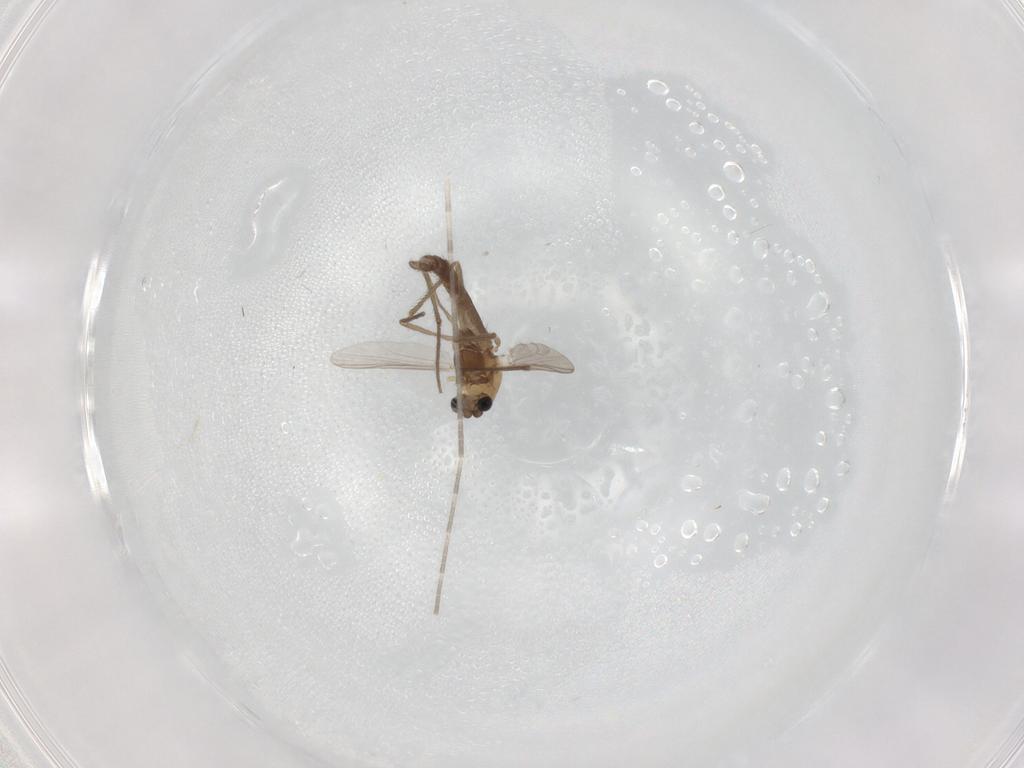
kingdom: Animalia
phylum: Arthropoda
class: Insecta
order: Diptera
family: Chironomidae
